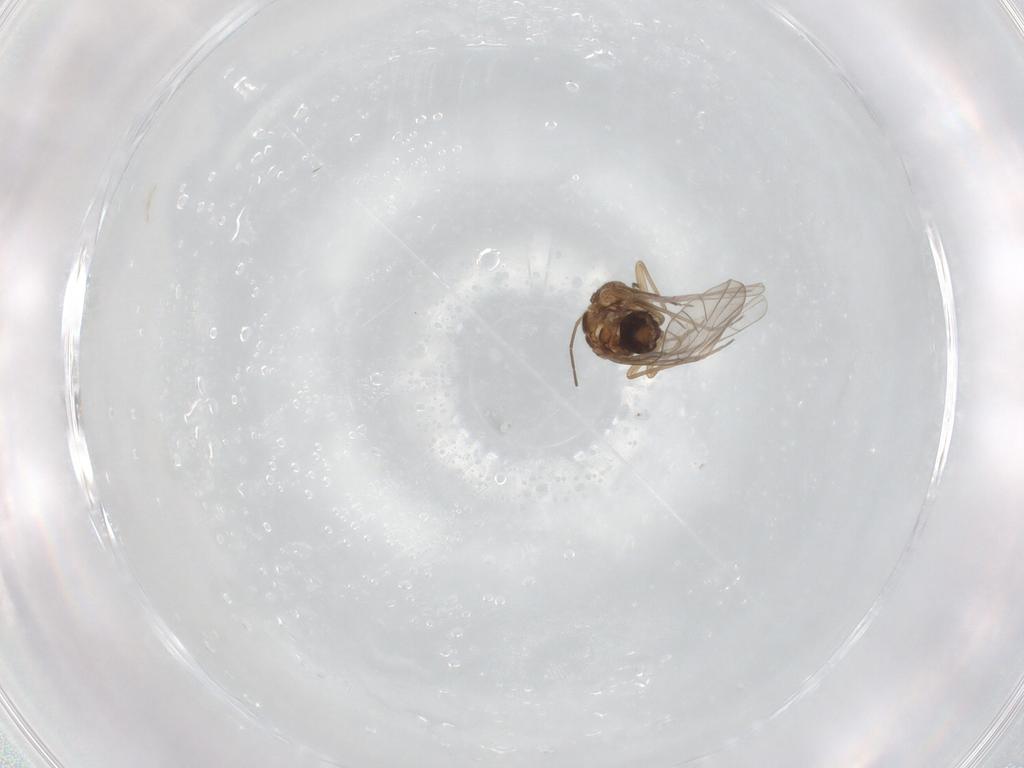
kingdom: Animalia
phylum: Arthropoda
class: Insecta
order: Psocodea
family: Lachesillidae
